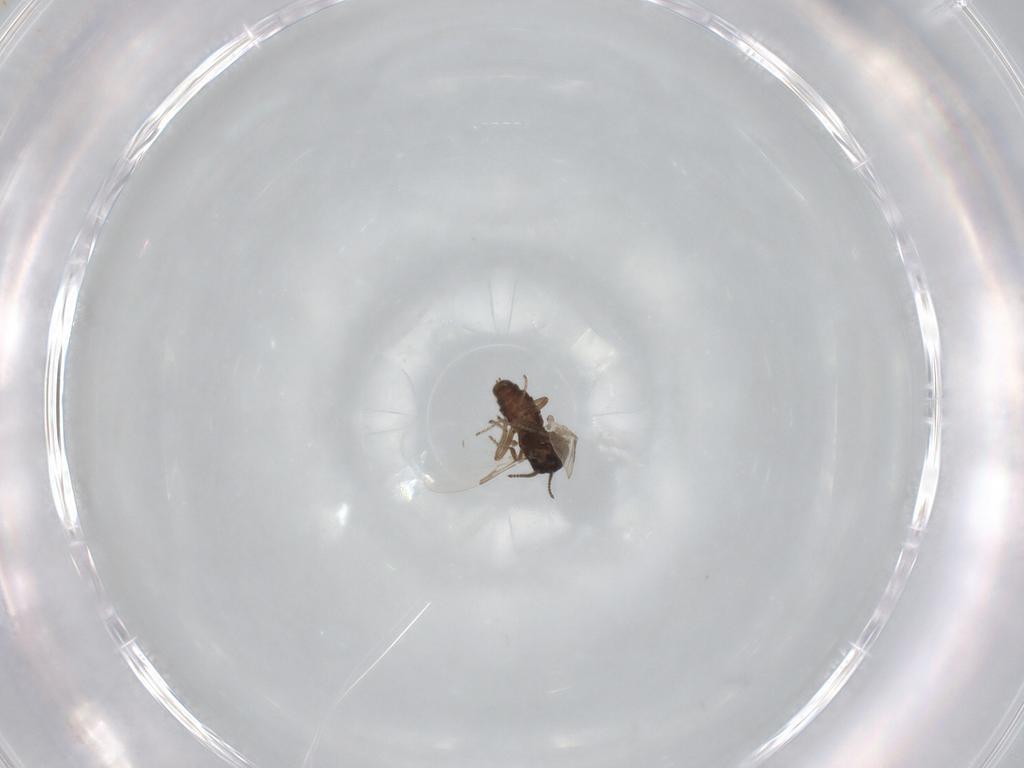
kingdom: Animalia
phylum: Arthropoda
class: Insecta
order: Diptera
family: Ceratopogonidae
